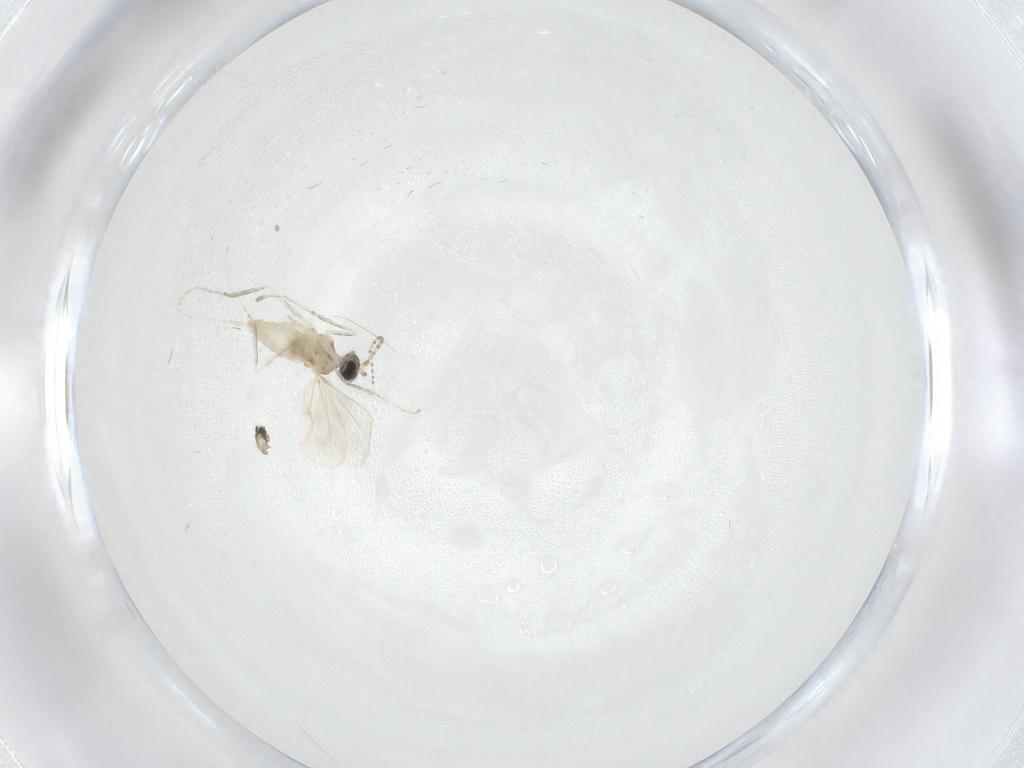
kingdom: Animalia
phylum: Arthropoda
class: Insecta
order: Diptera
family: Cecidomyiidae
